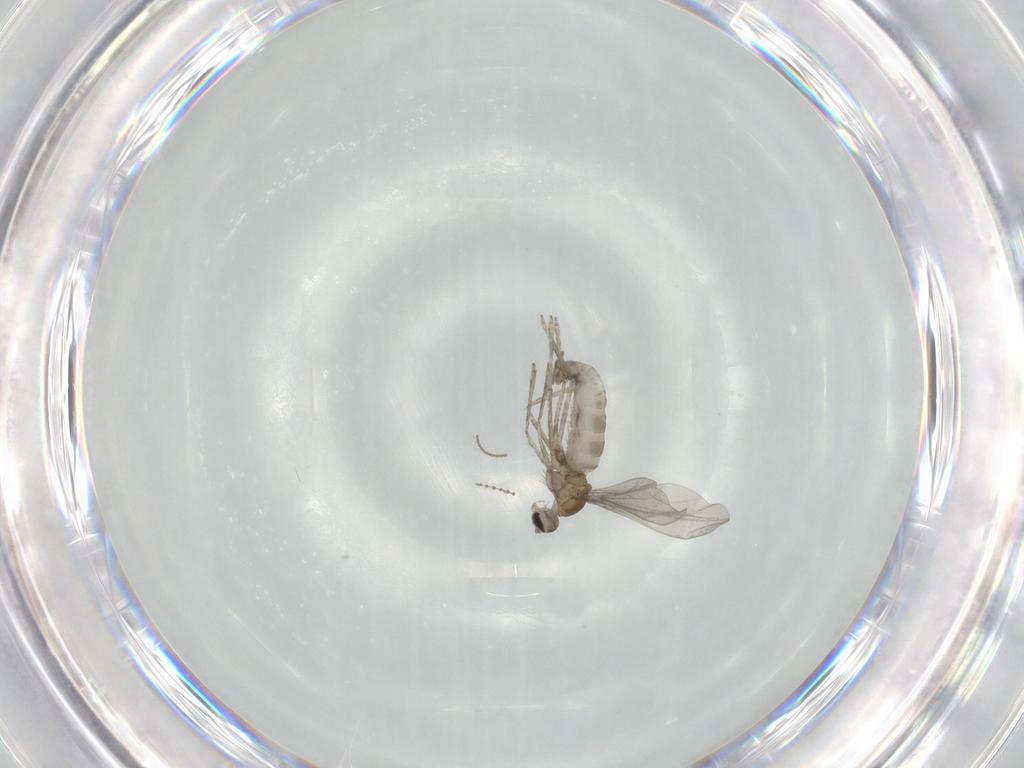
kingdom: Animalia
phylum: Arthropoda
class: Insecta
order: Diptera
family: Cecidomyiidae
